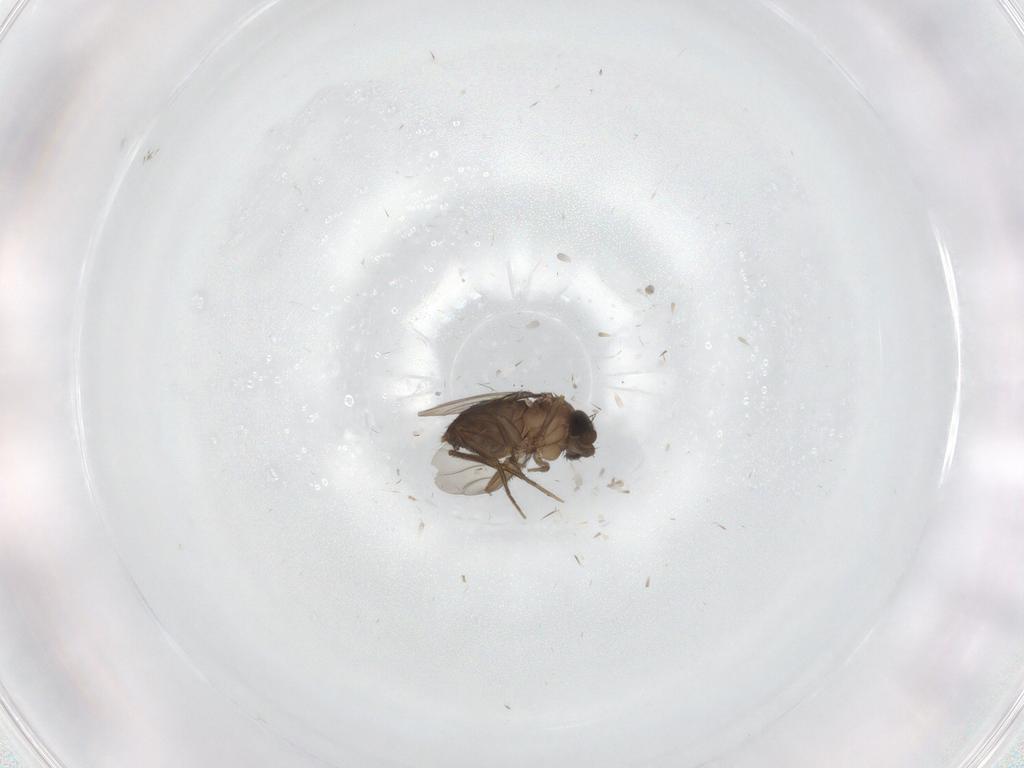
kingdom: Animalia
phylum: Arthropoda
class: Insecta
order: Diptera
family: Phoridae
